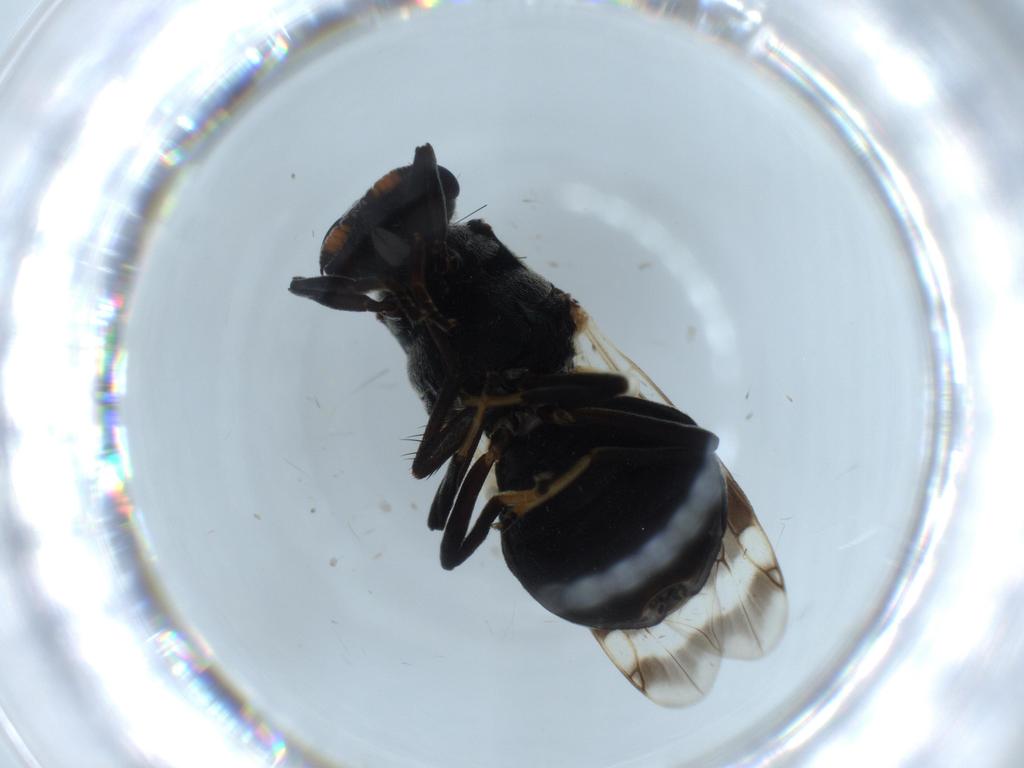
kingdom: Animalia
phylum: Arthropoda
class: Insecta
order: Diptera
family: Stratiomyidae
